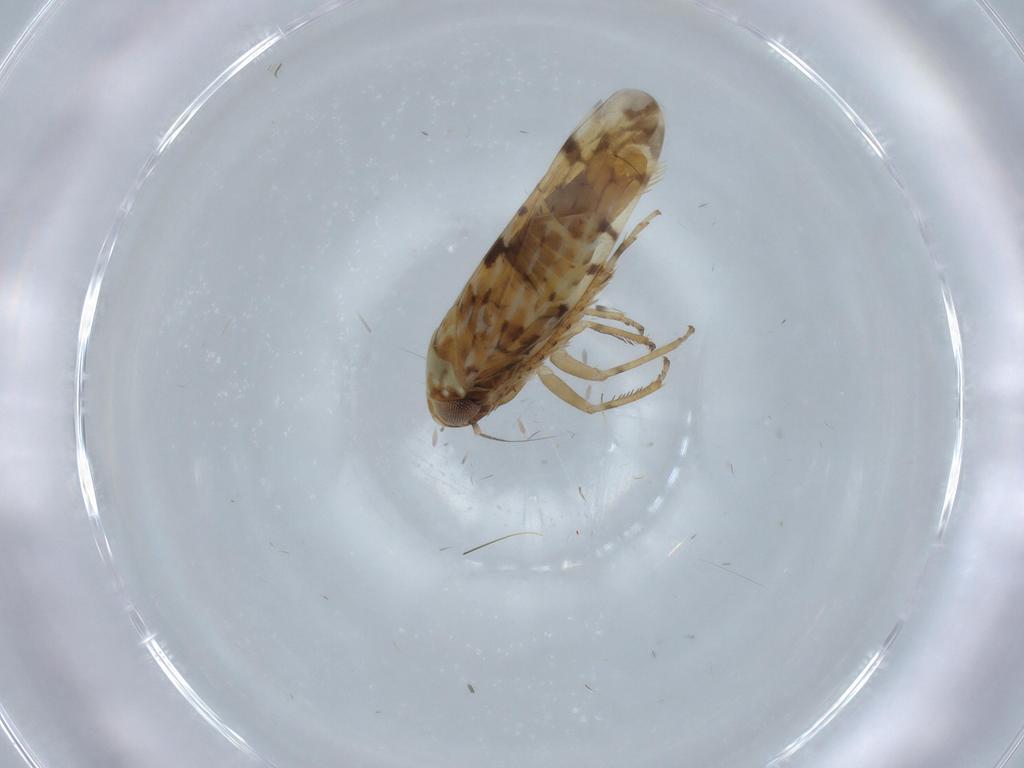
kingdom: Animalia
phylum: Arthropoda
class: Insecta
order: Hemiptera
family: Cicadellidae
